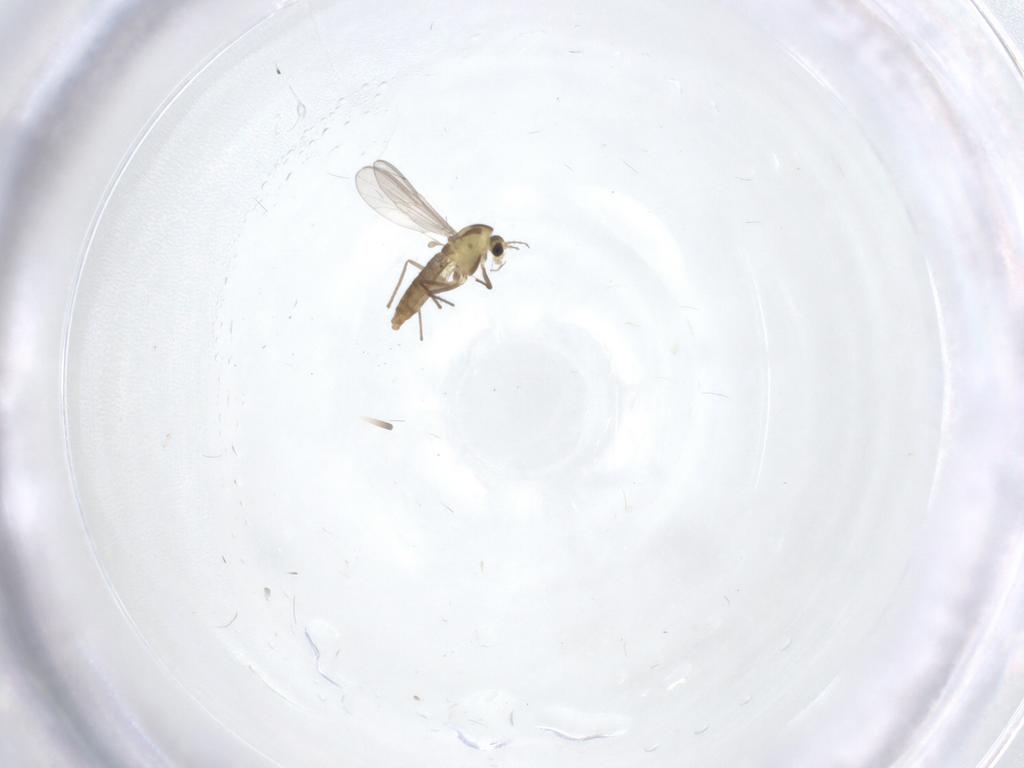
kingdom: Animalia
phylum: Arthropoda
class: Insecta
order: Diptera
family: Chironomidae
